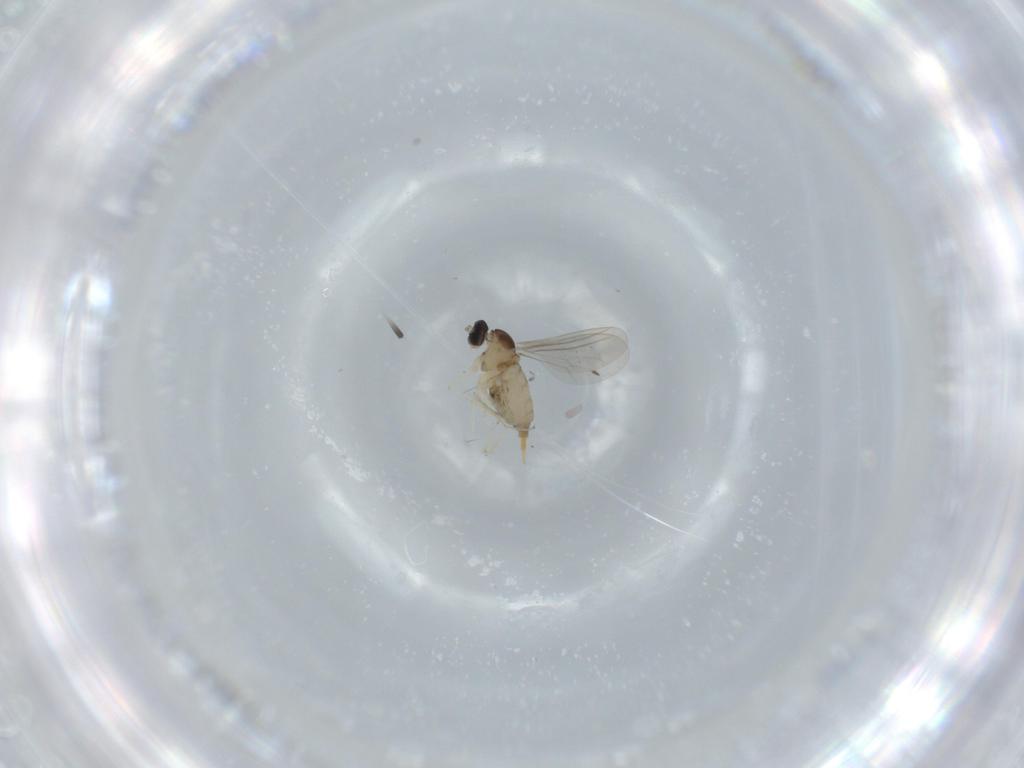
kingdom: Animalia
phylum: Arthropoda
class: Insecta
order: Diptera
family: Cecidomyiidae
